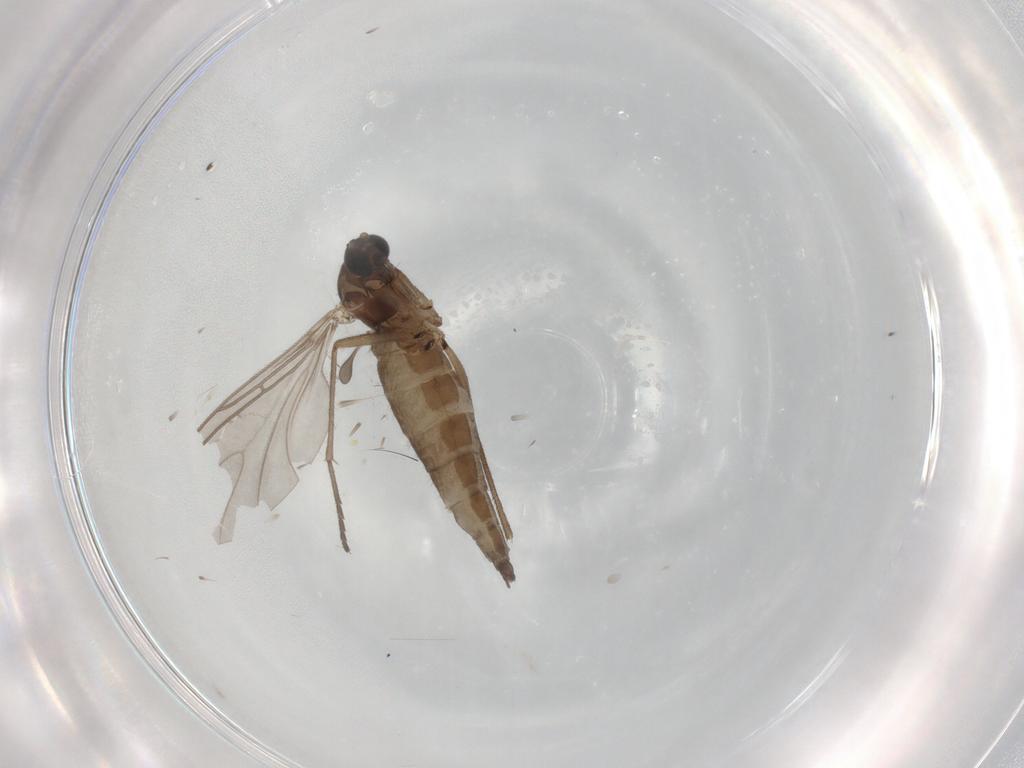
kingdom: Animalia
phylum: Arthropoda
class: Insecta
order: Diptera
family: Sciaridae
